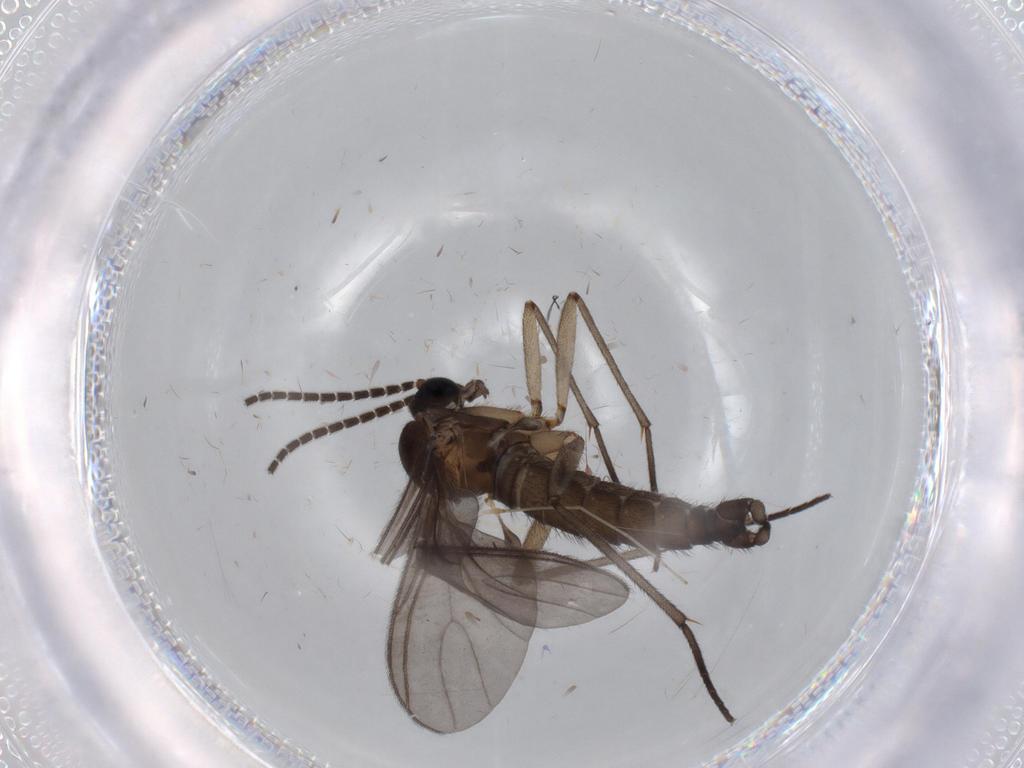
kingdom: Animalia
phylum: Arthropoda
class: Insecta
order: Diptera
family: Sciaridae
